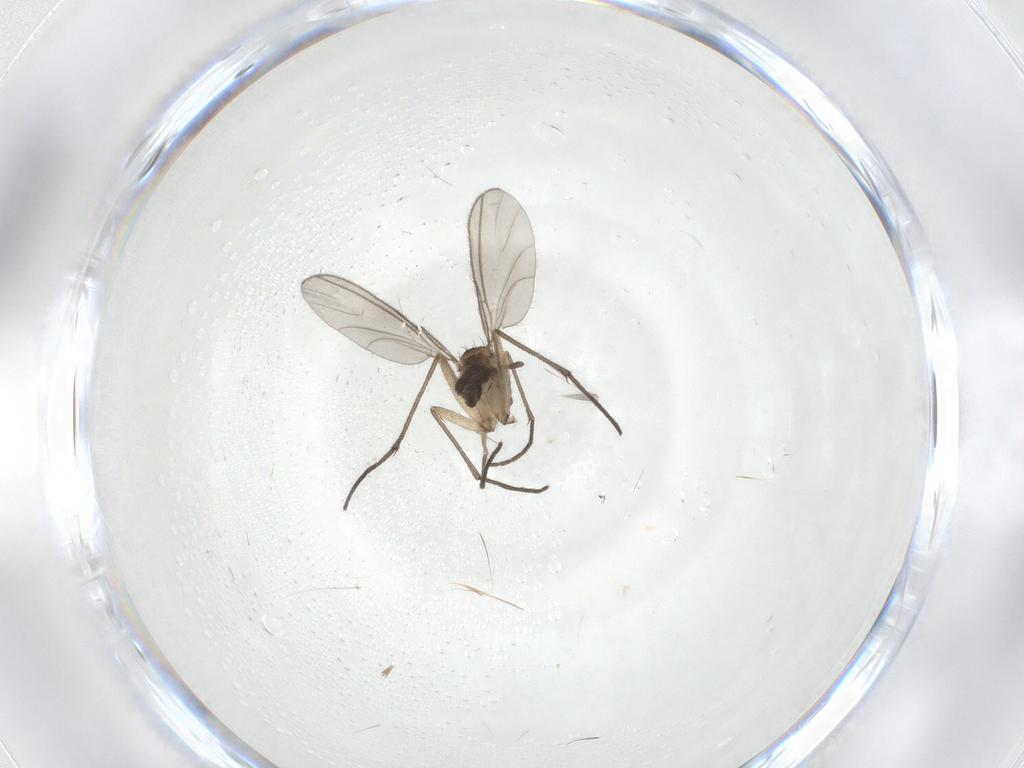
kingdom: Animalia
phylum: Arthropoda
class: Insecta
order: Diptera
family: Sciaridae
